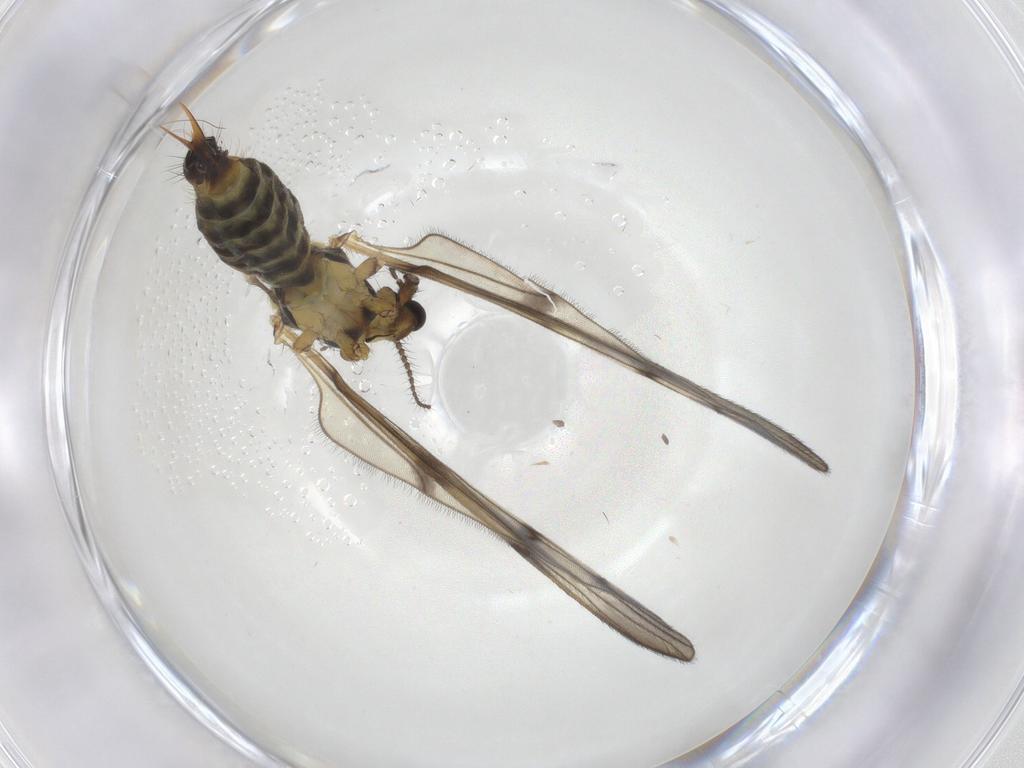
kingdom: Animalia
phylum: Arthropoda
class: Insecta
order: Diptera
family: Limoniidae
